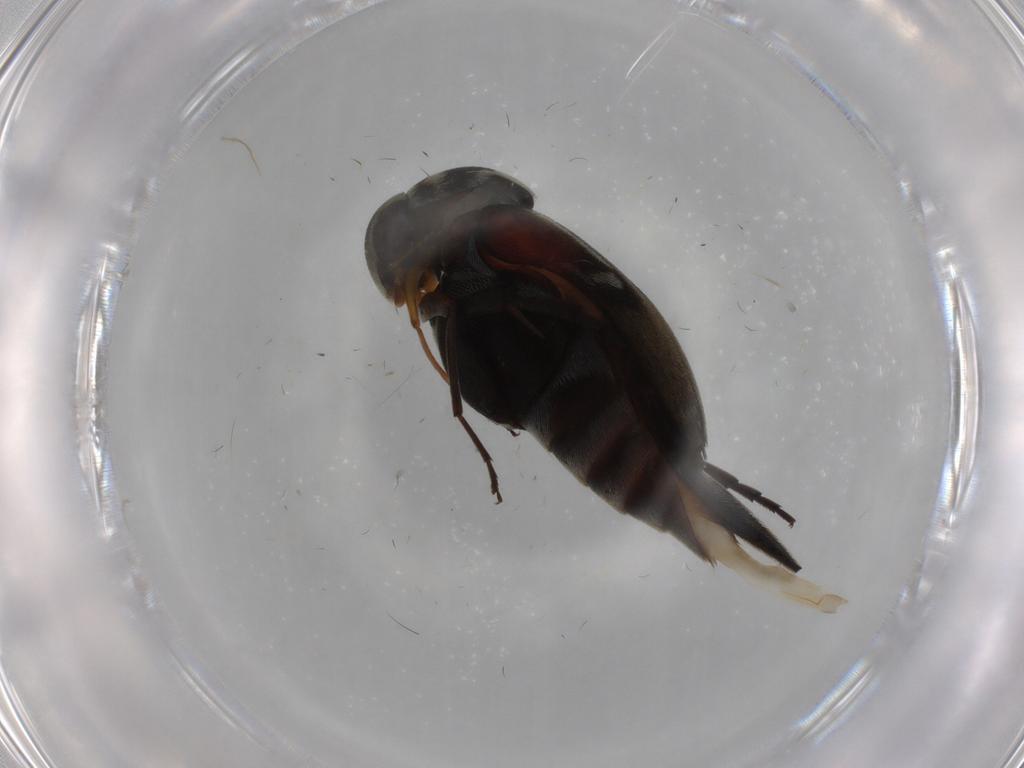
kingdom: Animalia
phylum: Arthropoda
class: Insecta
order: Coleoptera
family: Mordellidae
